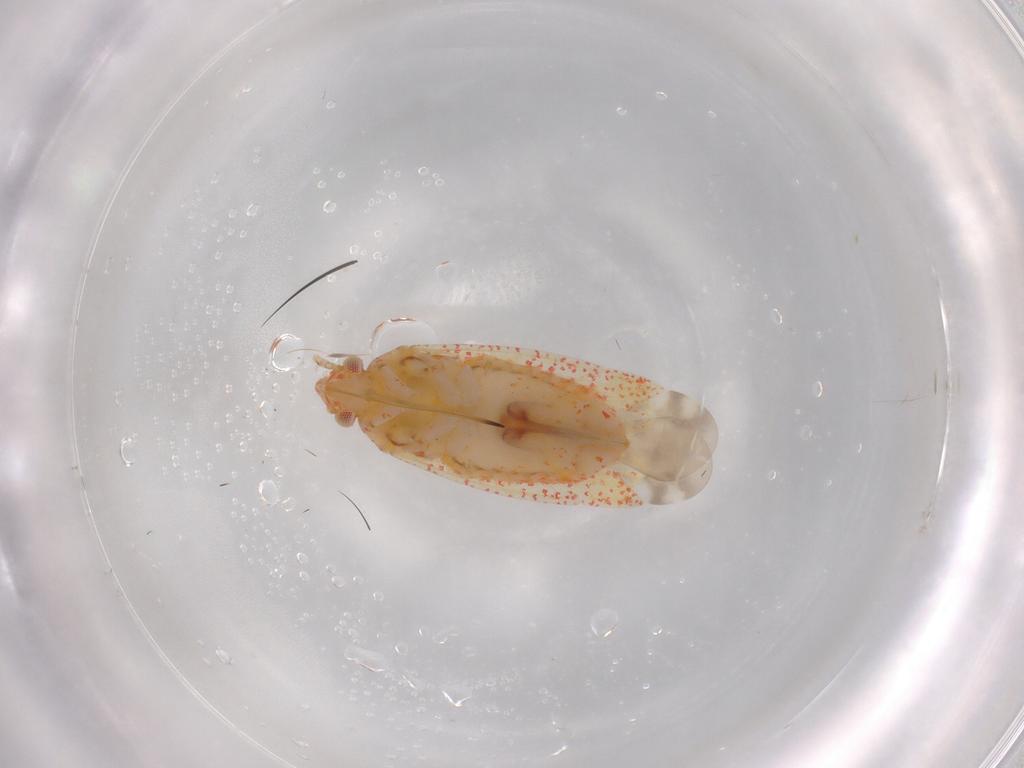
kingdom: Animalia
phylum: Arthropoda
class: Insecta
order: Hemiptera
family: Miridae
